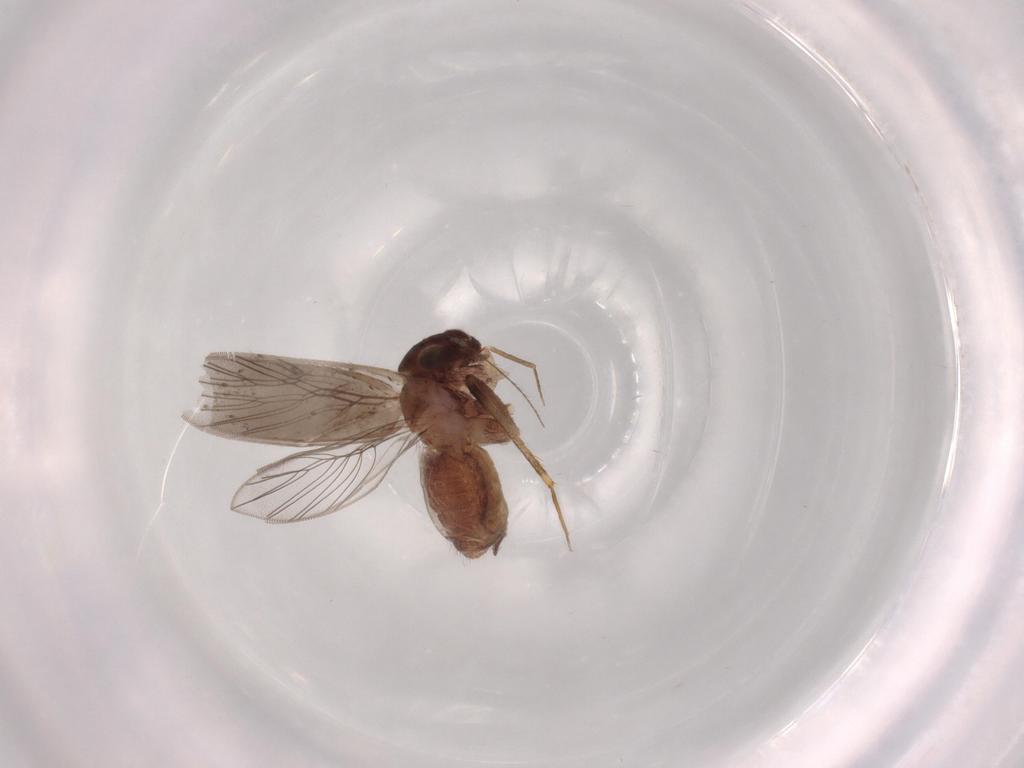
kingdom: Animalia
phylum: Arthropoda
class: Insecta
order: Psocodea
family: Lepidopsocidae
